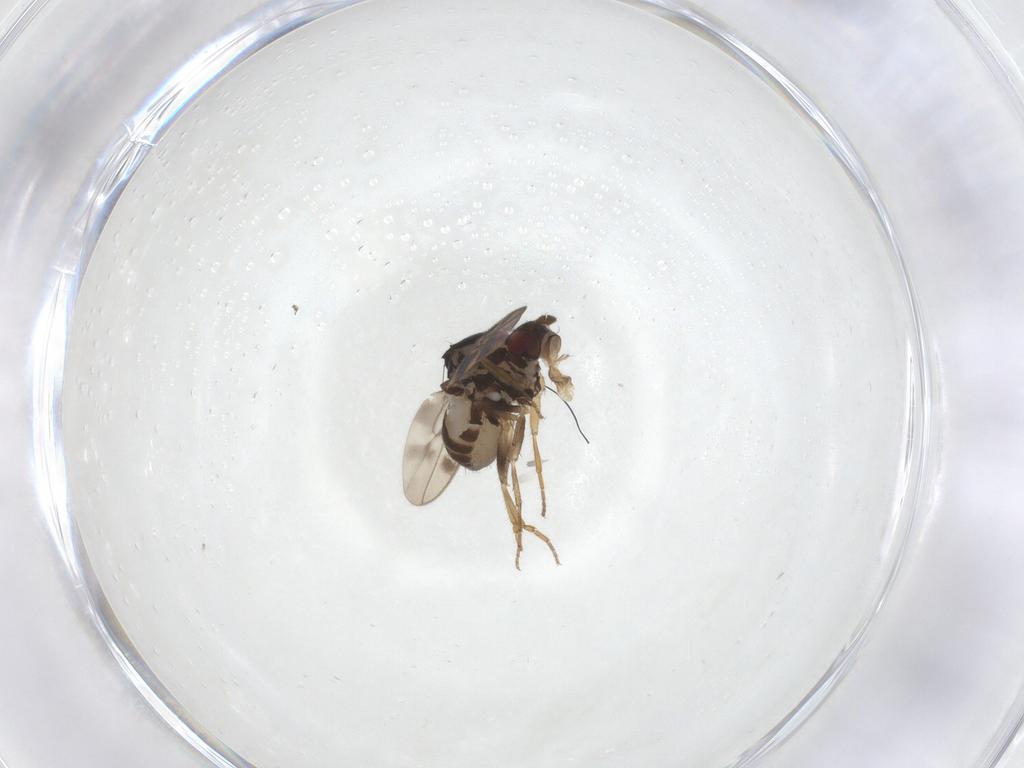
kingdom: Animalia
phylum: Arthropoda
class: Insecta
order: Diptera
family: Sphaeroceridae
